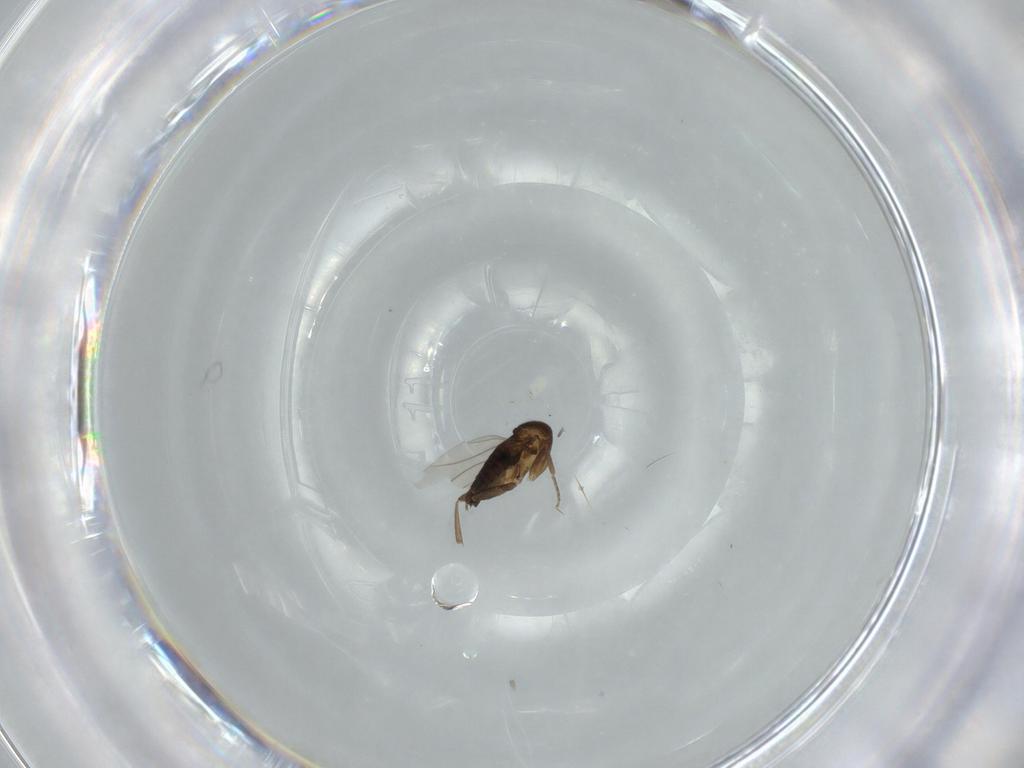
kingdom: Animalia
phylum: Arthropoda
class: Insecta
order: Diptera
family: Phoridae
